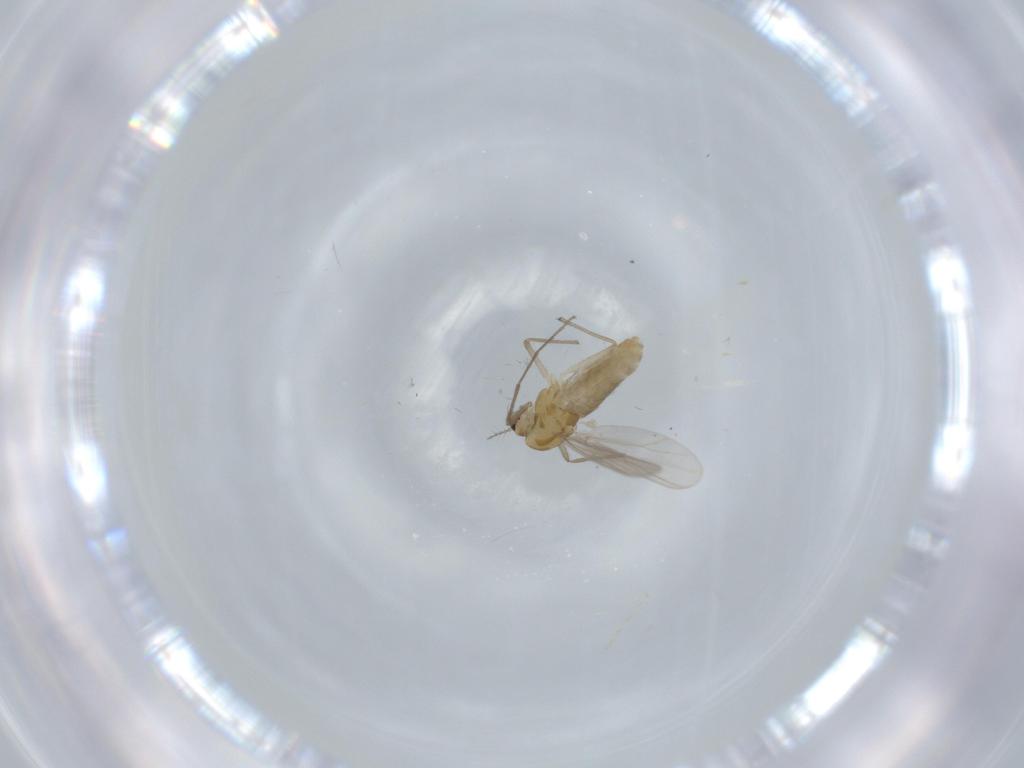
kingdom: Animalia
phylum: Arthropoda
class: Insecta
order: Diptera
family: Chironomidae
